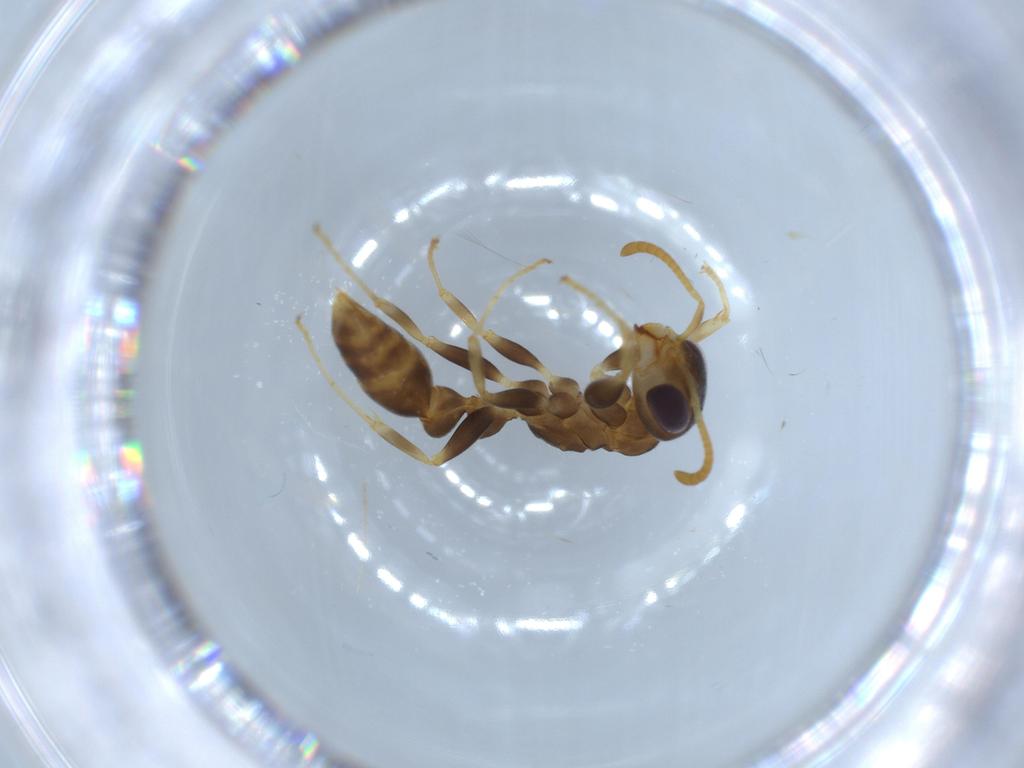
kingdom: Animalia
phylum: Arthropoda
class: Insecta
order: Hymenoptera
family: Formicidae
